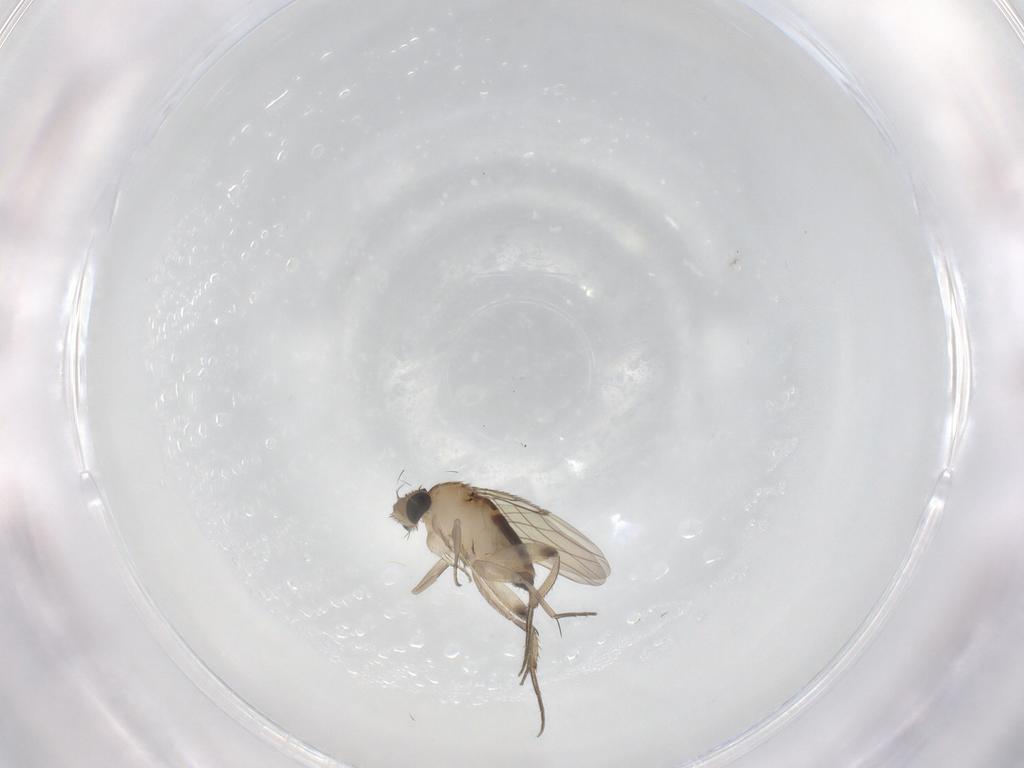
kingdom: Animalia
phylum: Arthropoda
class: Insecta
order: Diptera
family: Phoridae
